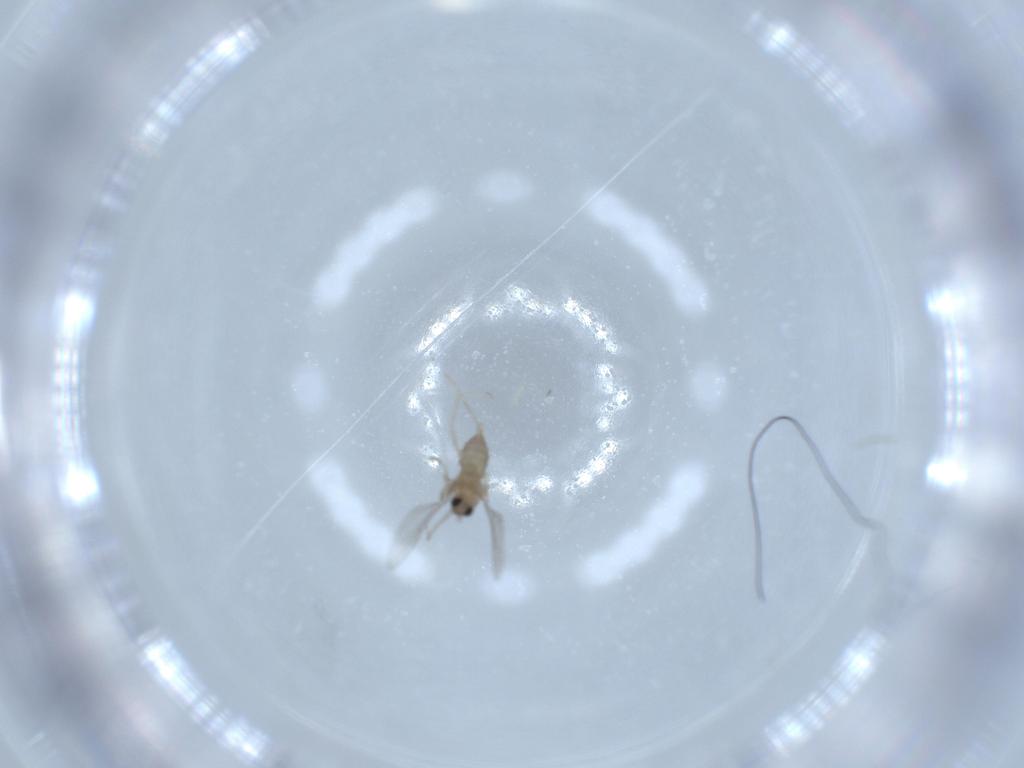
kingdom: Animalia
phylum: Arthropoda
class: Insecta
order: Diptera
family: Cecidomyiidae
